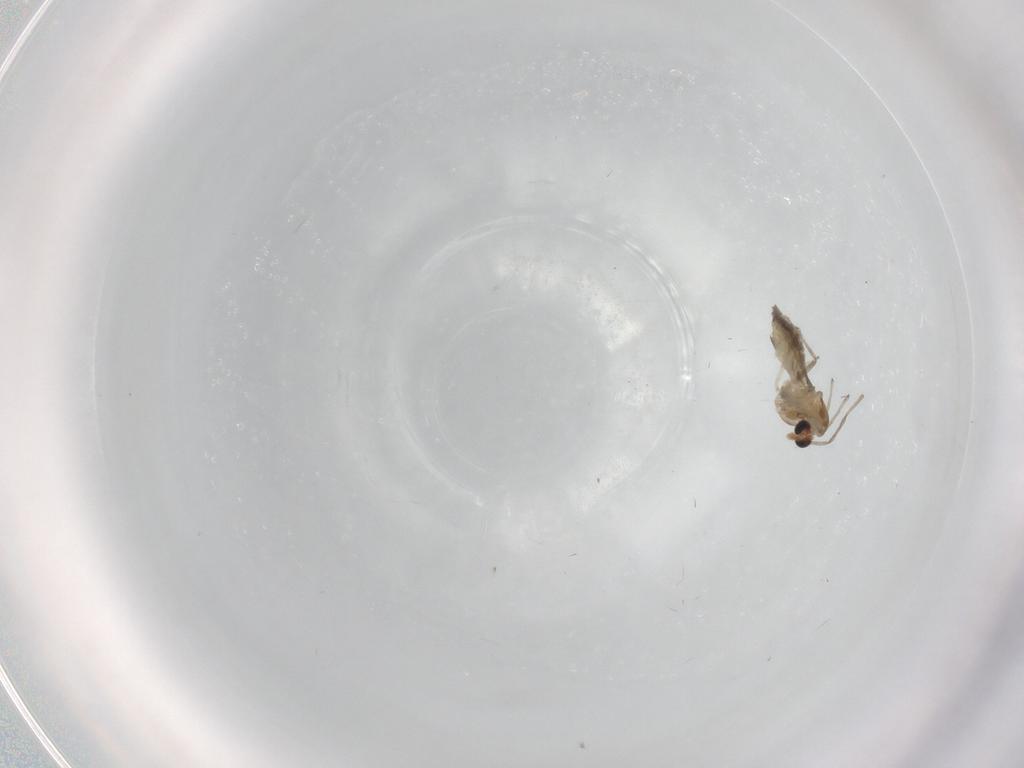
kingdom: Animalia
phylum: Arthropoda
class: Insecta
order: Diptera
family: Chironomidae
